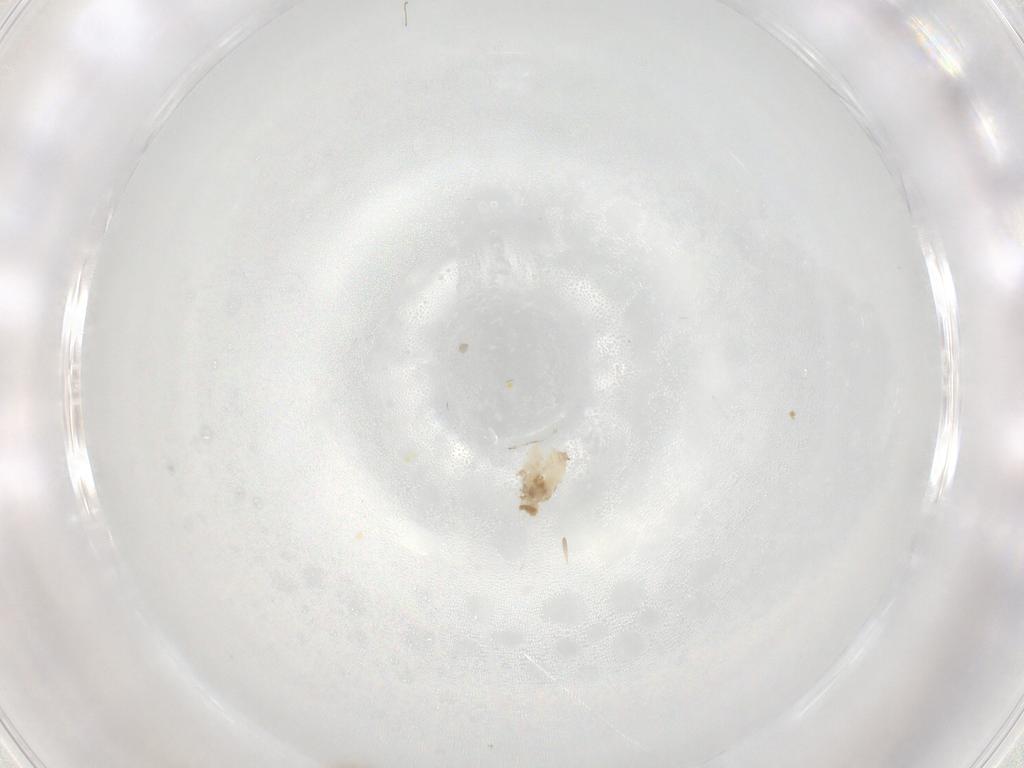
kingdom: Animalia
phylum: Arthropoda
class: Insecta
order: Diptera
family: Cecidomyiidae
